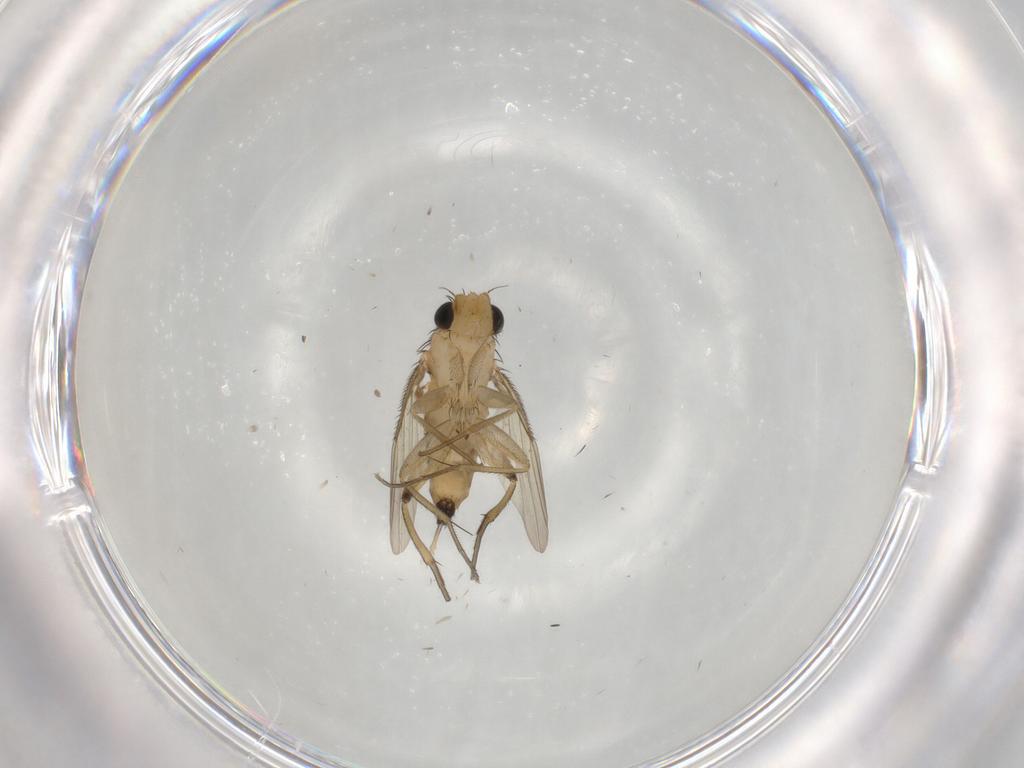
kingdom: Animalia
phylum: Arthropoda
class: Insecta
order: Diptera
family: Phoridae
